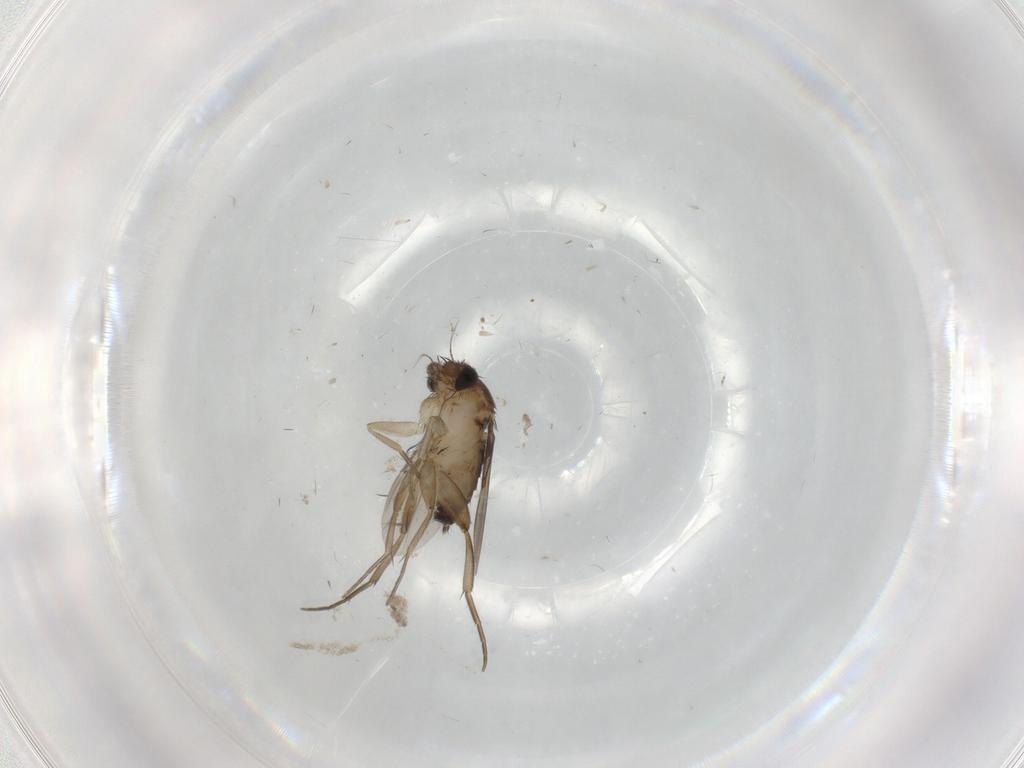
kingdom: Animalia
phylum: Arthropoda
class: Insecta
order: Diptera
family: Phoridae
